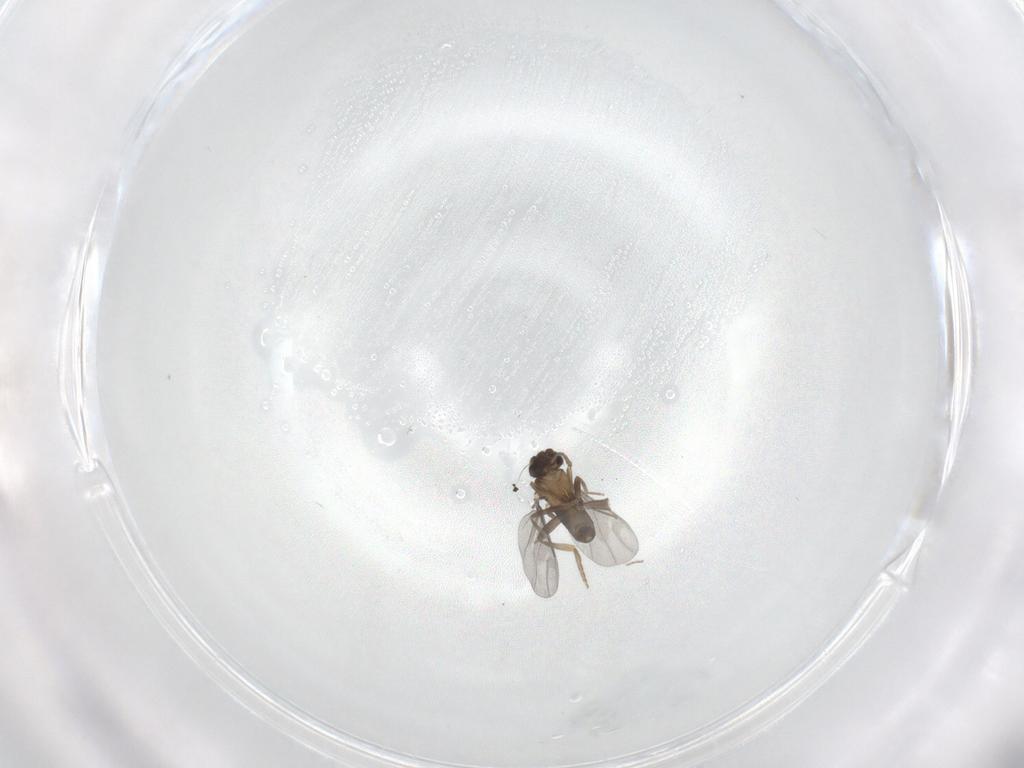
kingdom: Animalia
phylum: Arthropoda
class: Insecta
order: Diptera
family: Chironomidae
